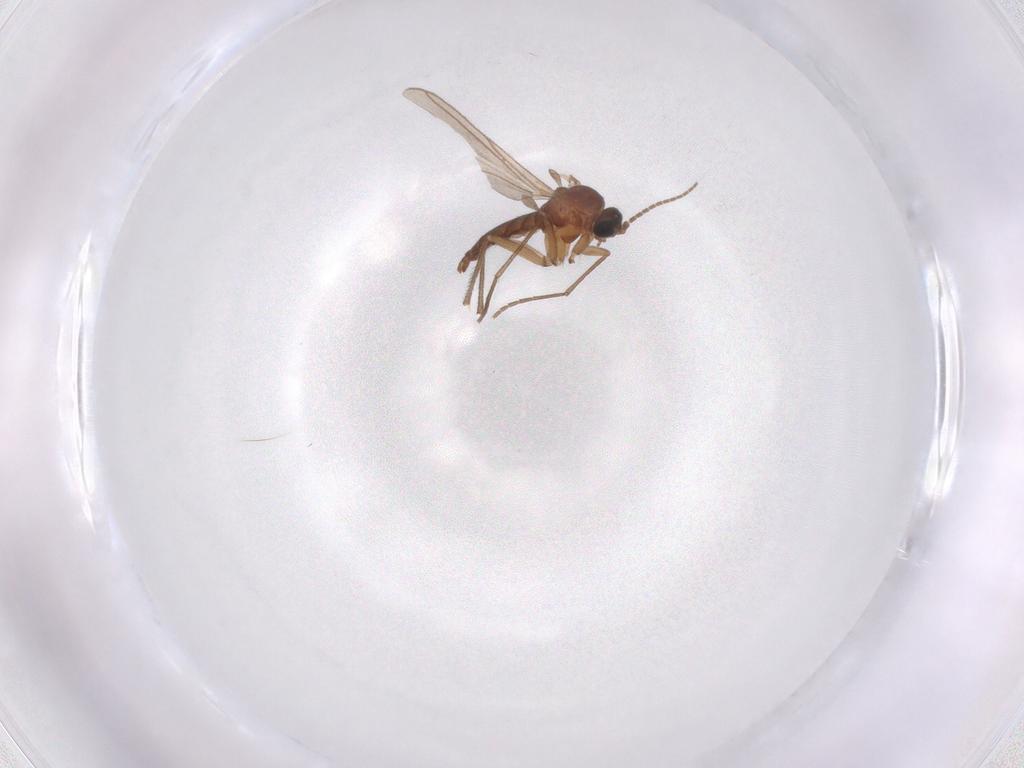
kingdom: Animalia
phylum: Arthropoda
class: Insecta
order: Diptera
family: Sciaridae
